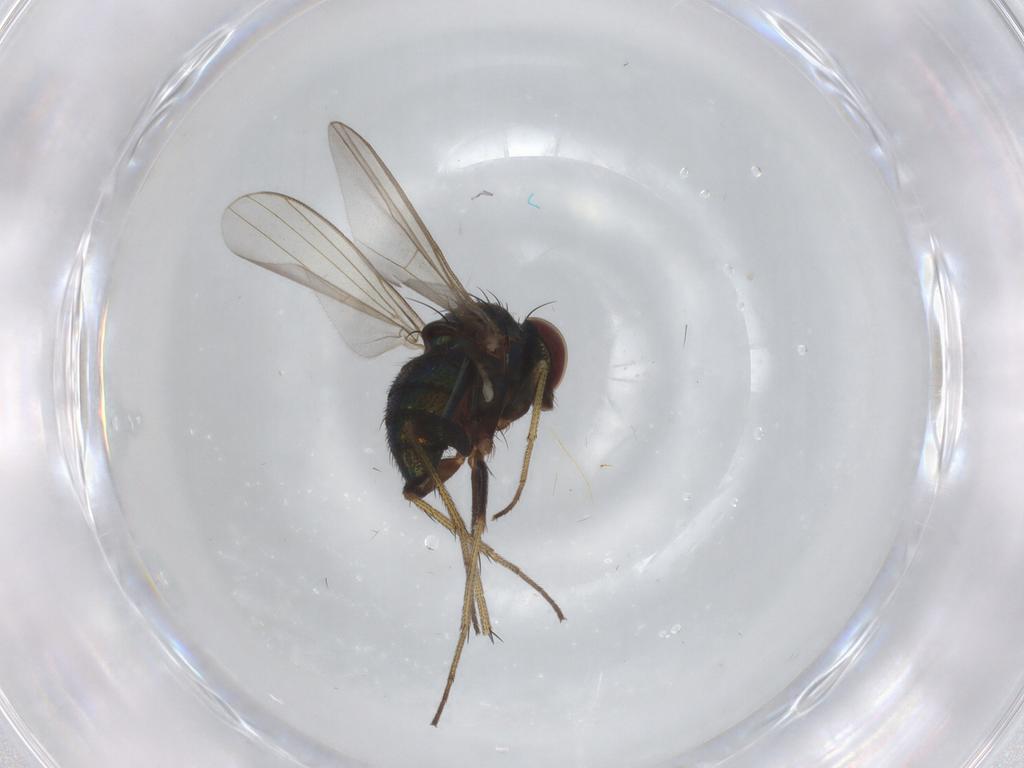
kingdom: Animalia
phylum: Arthropoda
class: Insecta
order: Diptera
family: Dolichopodidae
